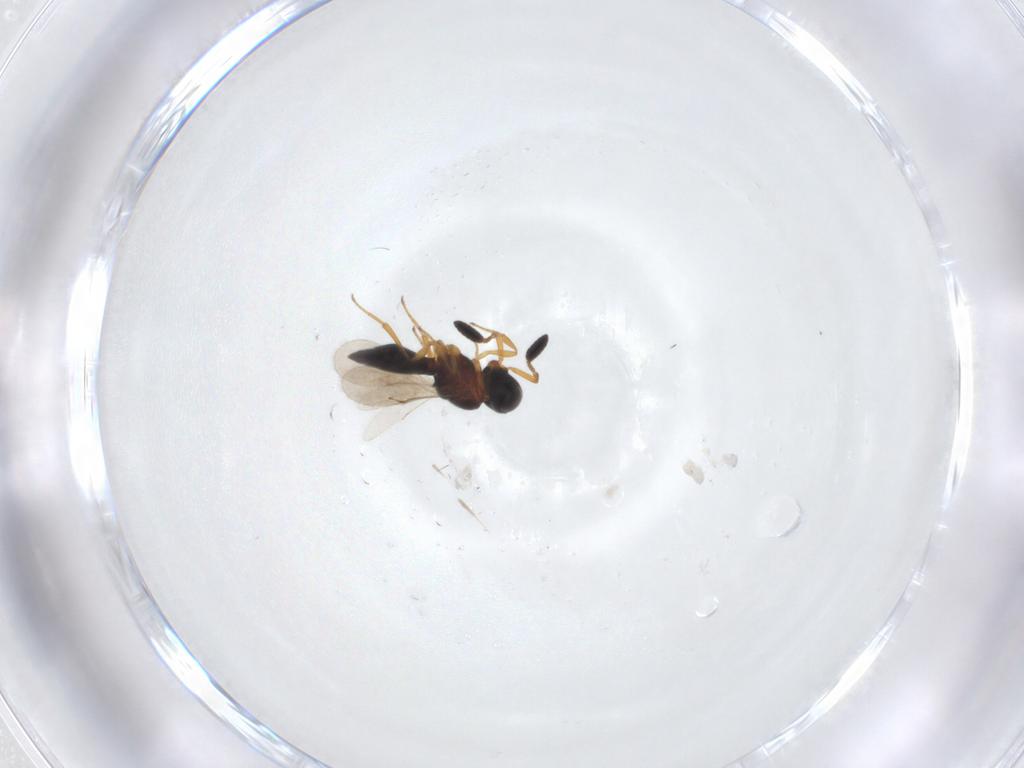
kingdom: Animalia
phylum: Arthropoda
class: Insecta
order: Hymenoptera
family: Scelionidae
